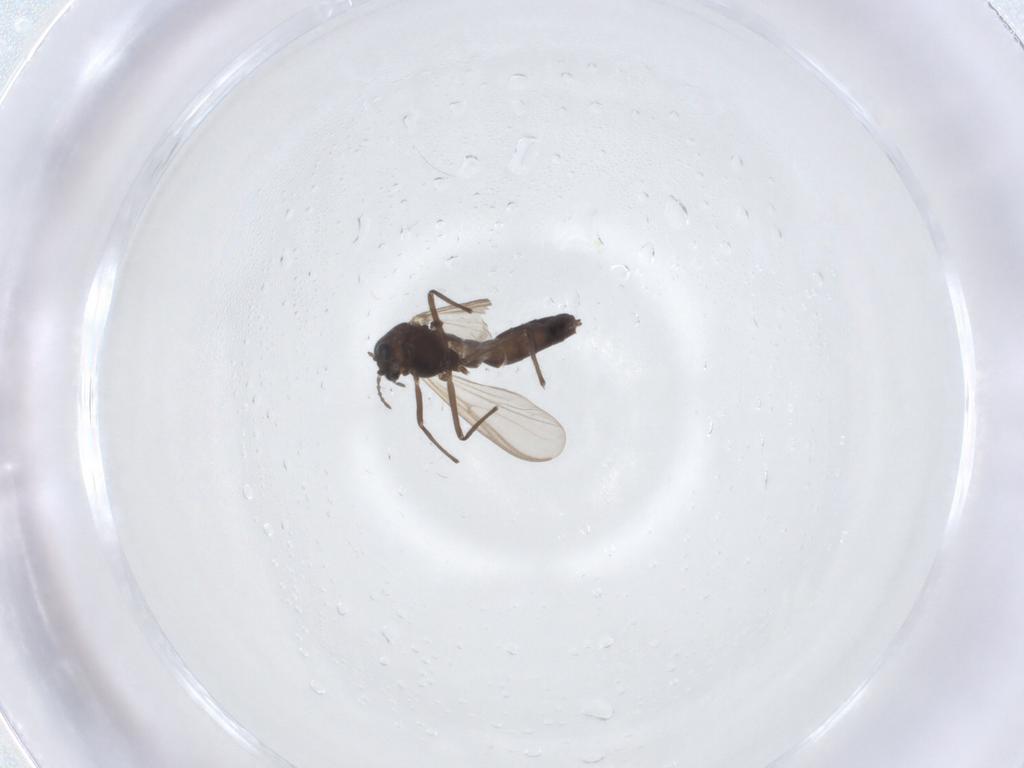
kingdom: Animalia
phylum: Arthropoda
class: Insecta
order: Diptera
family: Chironomidae
